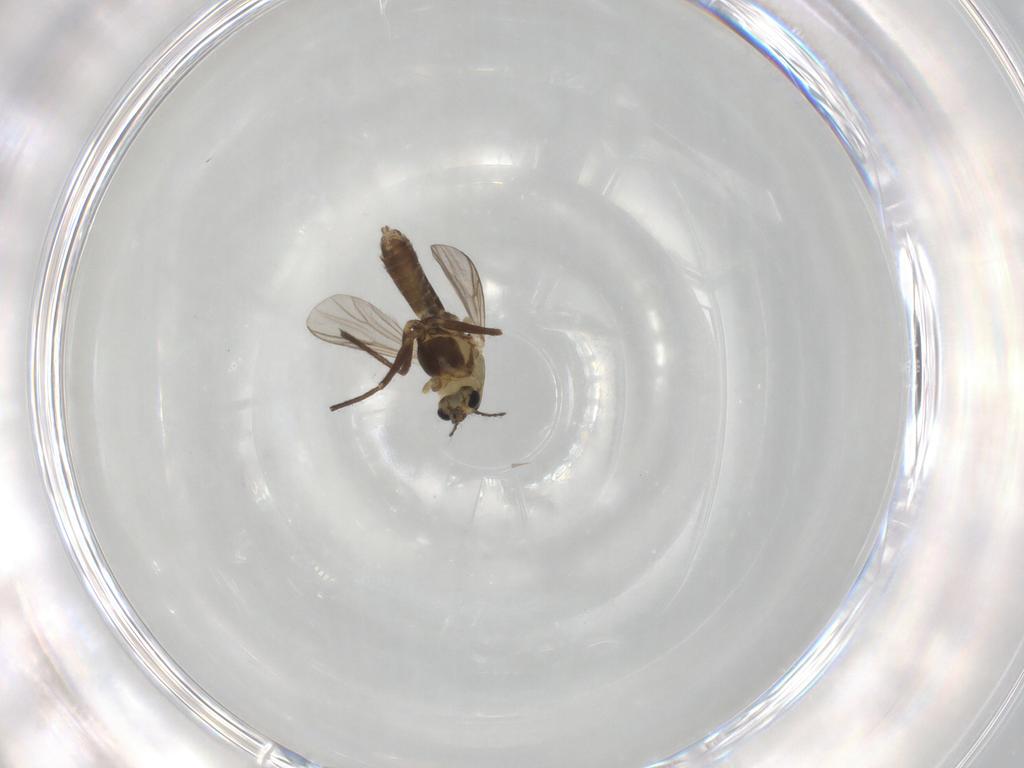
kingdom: Animalia
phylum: Arthropoda
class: Insecta
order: Diptera
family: Chironomidae
